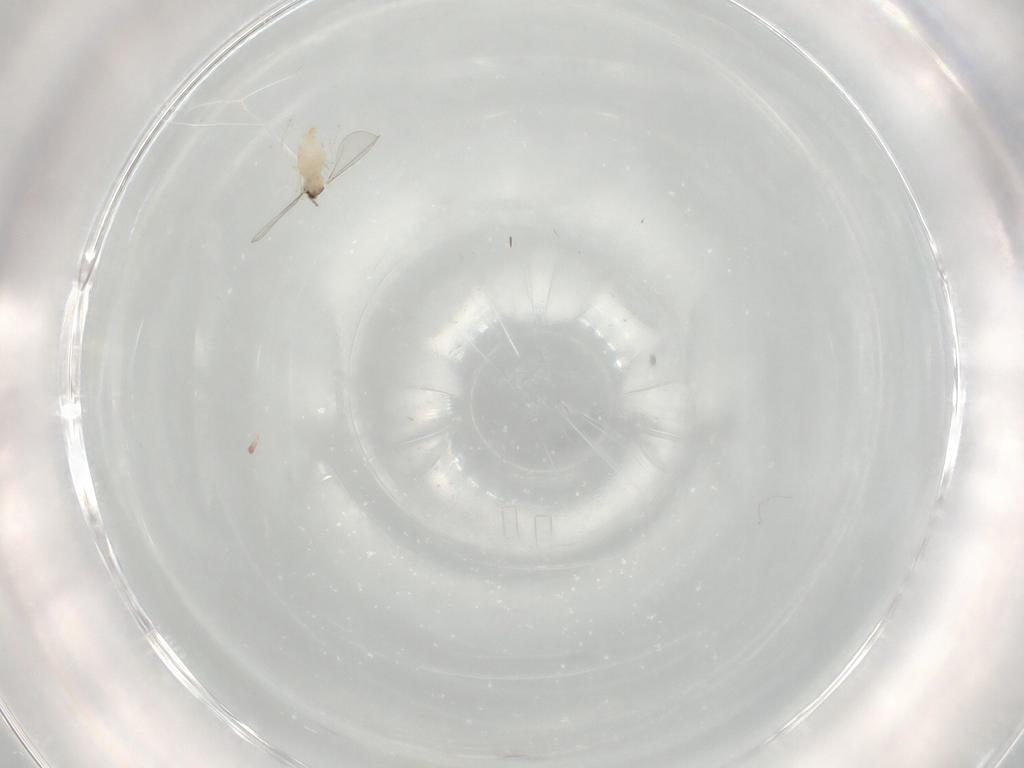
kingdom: Animalia
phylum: Arthropoda
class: Insecta
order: Diptera
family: Cecidomyiidae
